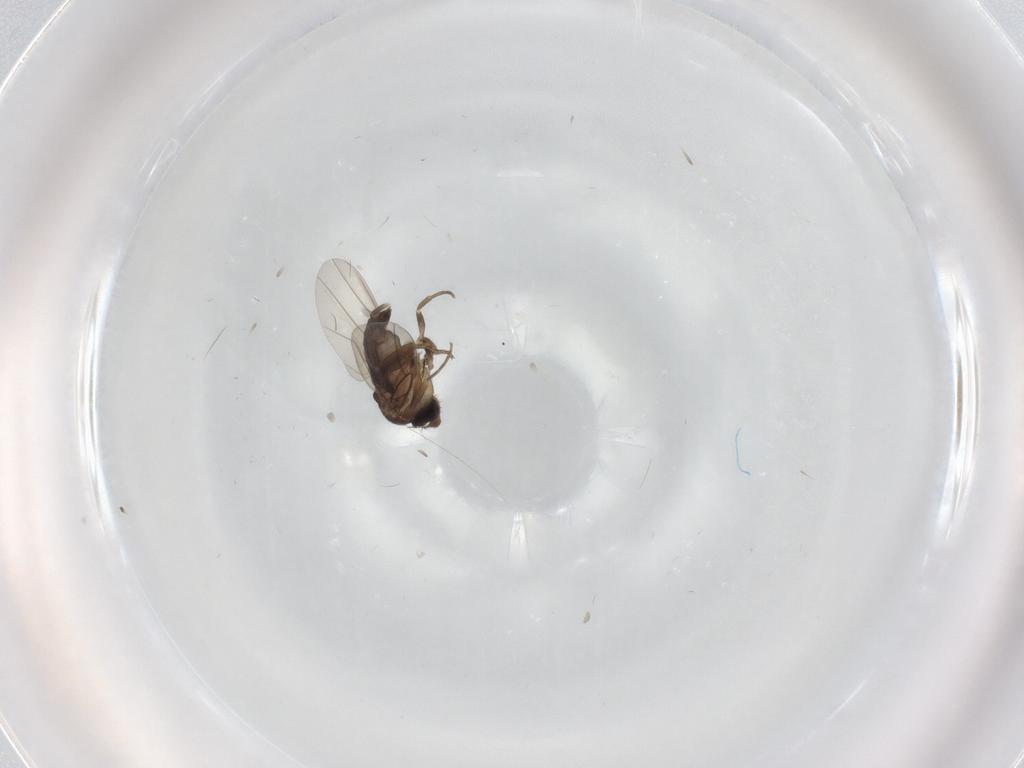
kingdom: Animalia
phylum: Arthropoda
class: Insecta
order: Diptera
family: Phoridae
